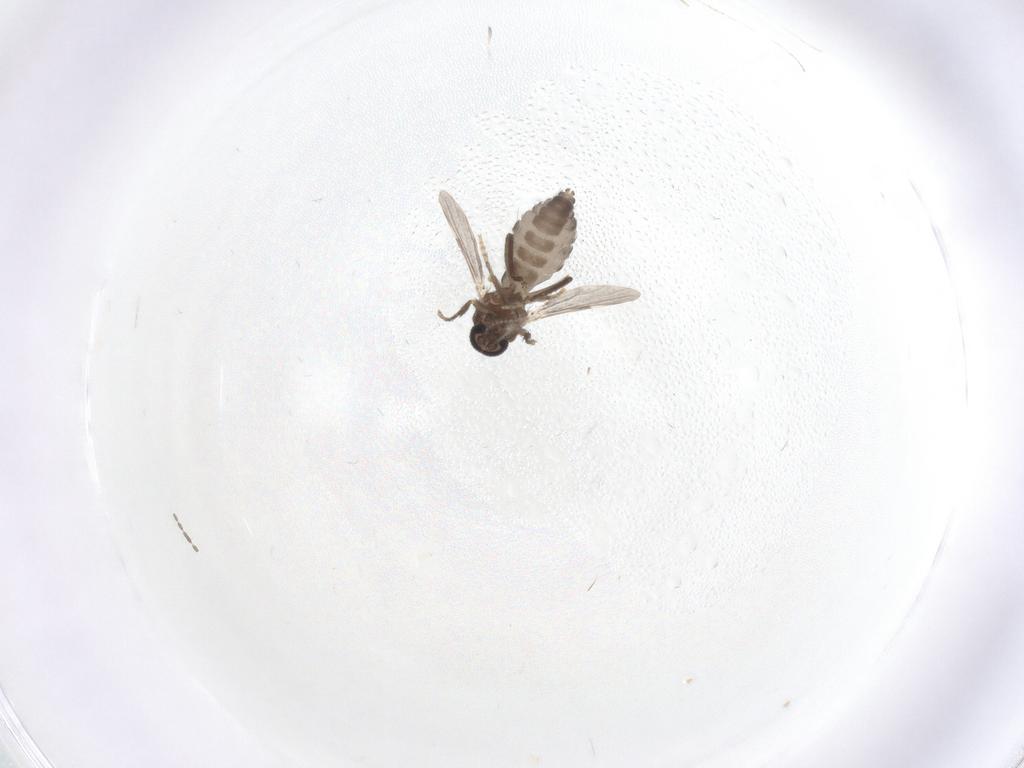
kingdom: Animalia
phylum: Arthropoda
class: Insecta
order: Diptera
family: Ceratopogonidae
